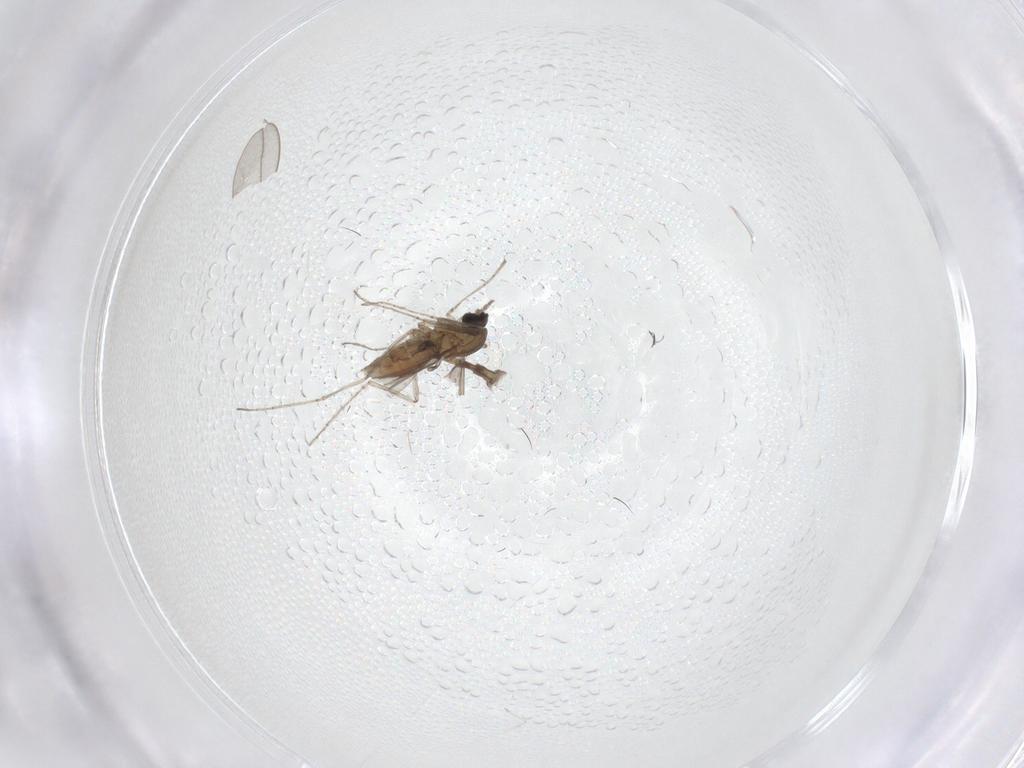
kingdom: Animalia
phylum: Arthropoda
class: Insecta
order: Diptera
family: Cecidomyiidae
